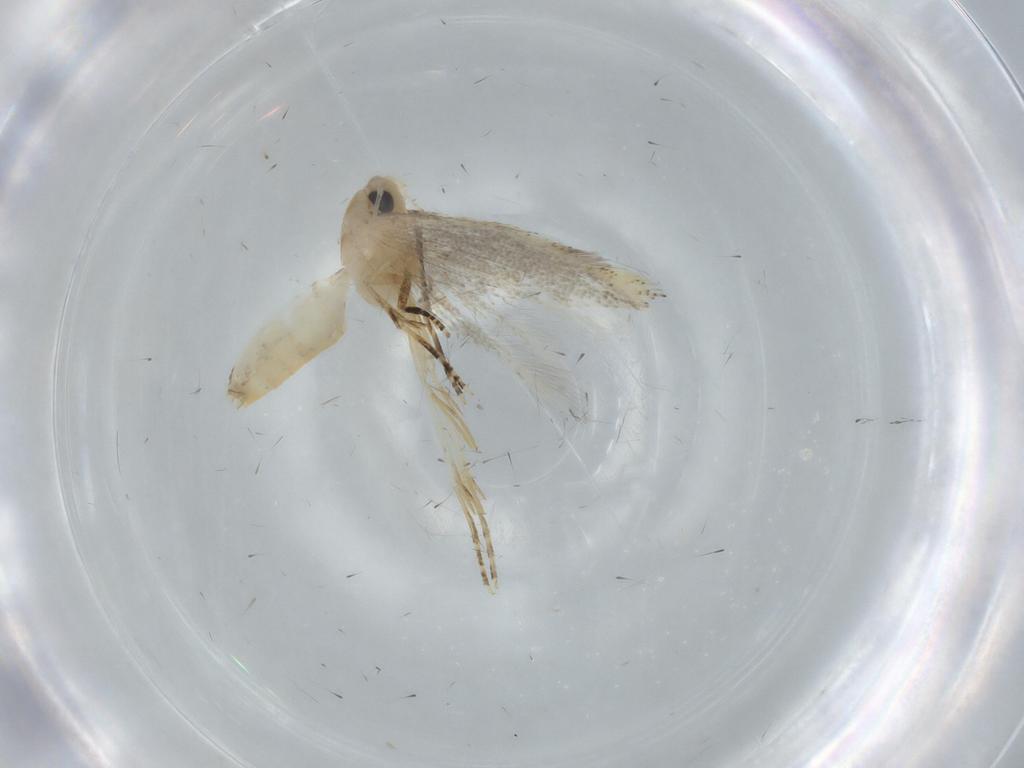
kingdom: Animalia
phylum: Arthropoda
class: Insecta
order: Lepidoptera
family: Bucculatricidae
